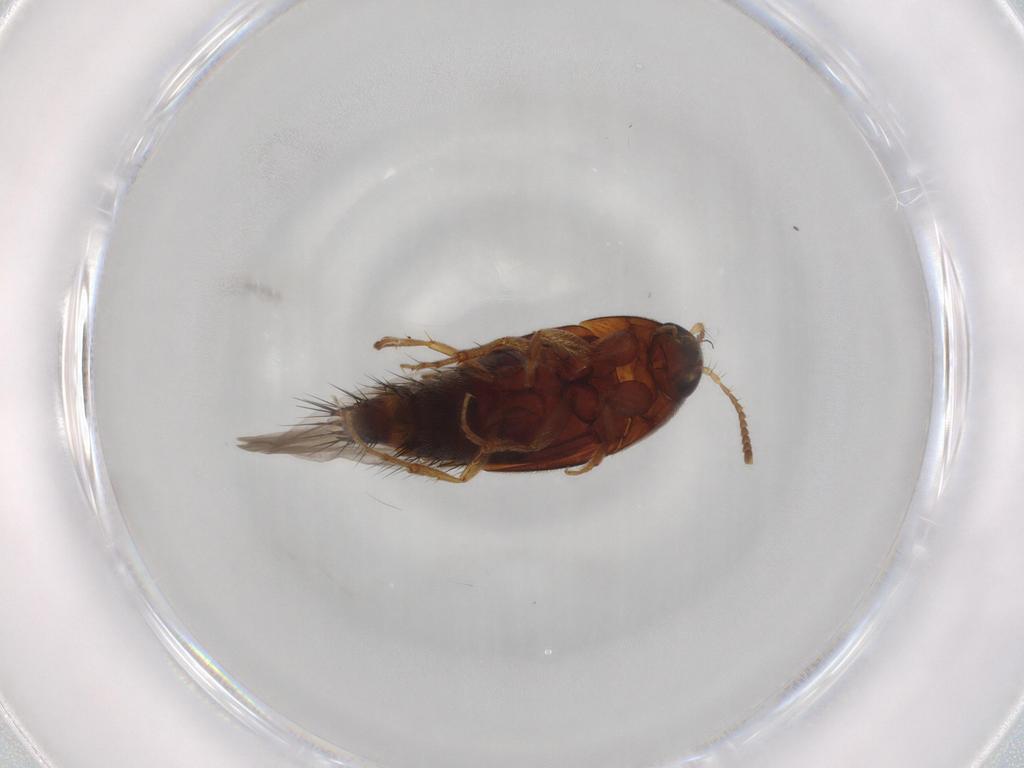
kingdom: Animalia
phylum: Arthropoda
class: Insecta
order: Coleoptera
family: Staphylinidae
